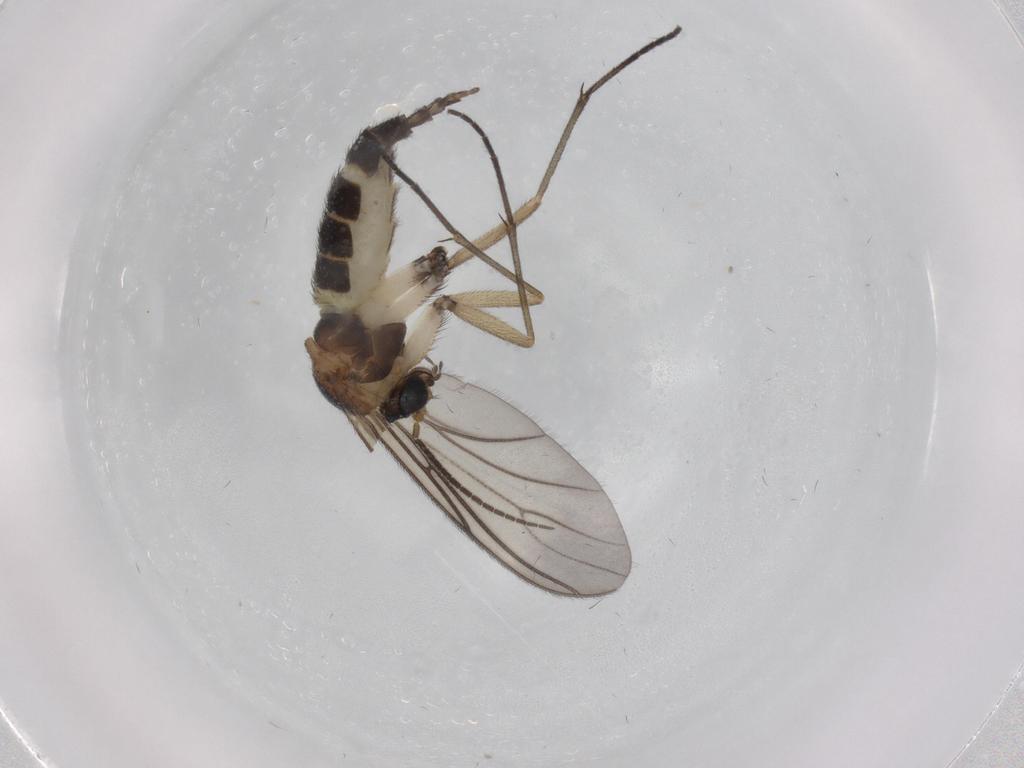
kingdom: Animalia
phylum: Arthropoda
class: Insecta
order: Diptera
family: Sciaridae
